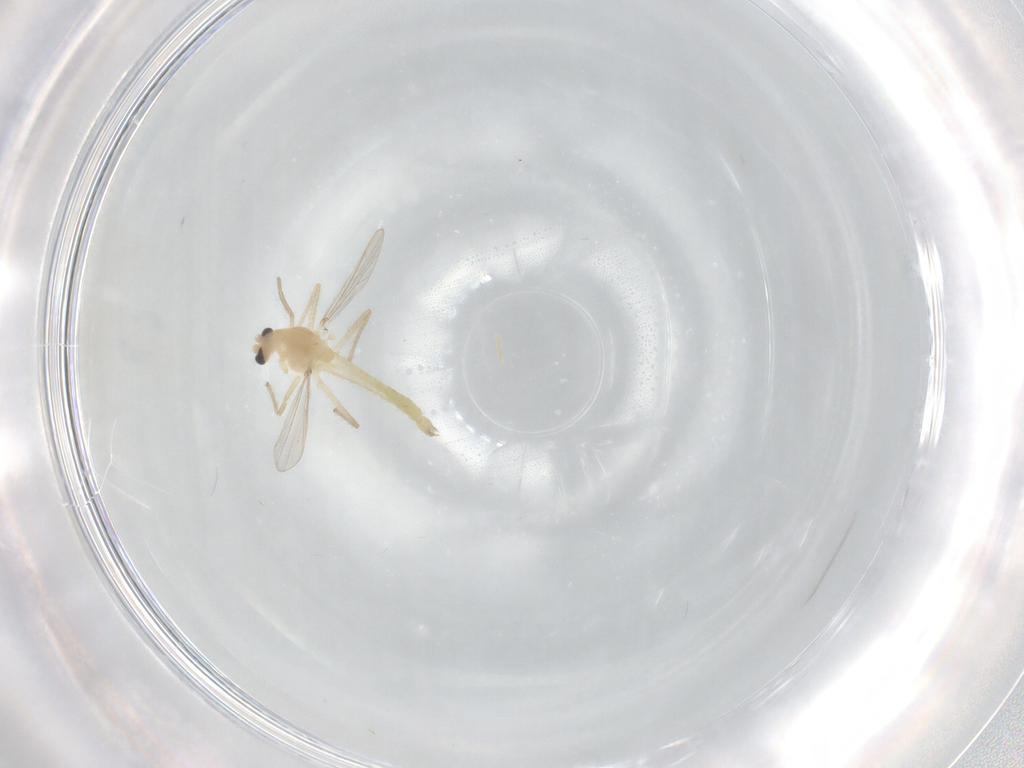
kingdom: Animalia
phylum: Arthropoda
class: Insecta
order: Diptera
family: Chironomidae
